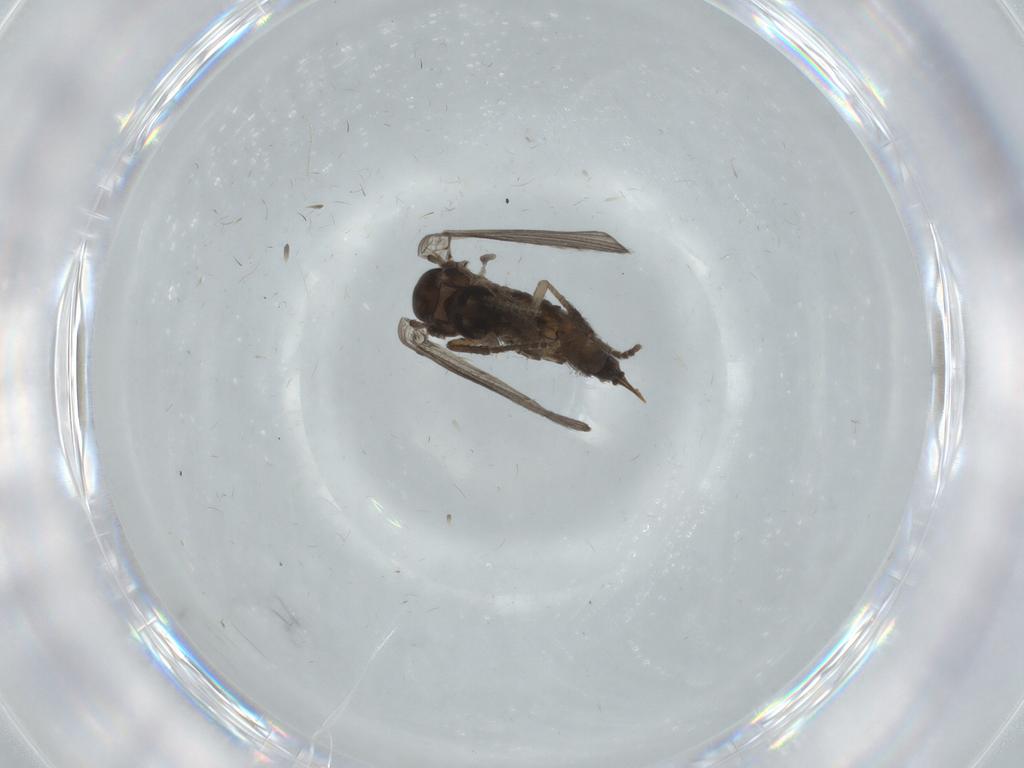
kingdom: Animalia
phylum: Arthropoda
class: Insecta
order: Diptera
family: Psychodidae
